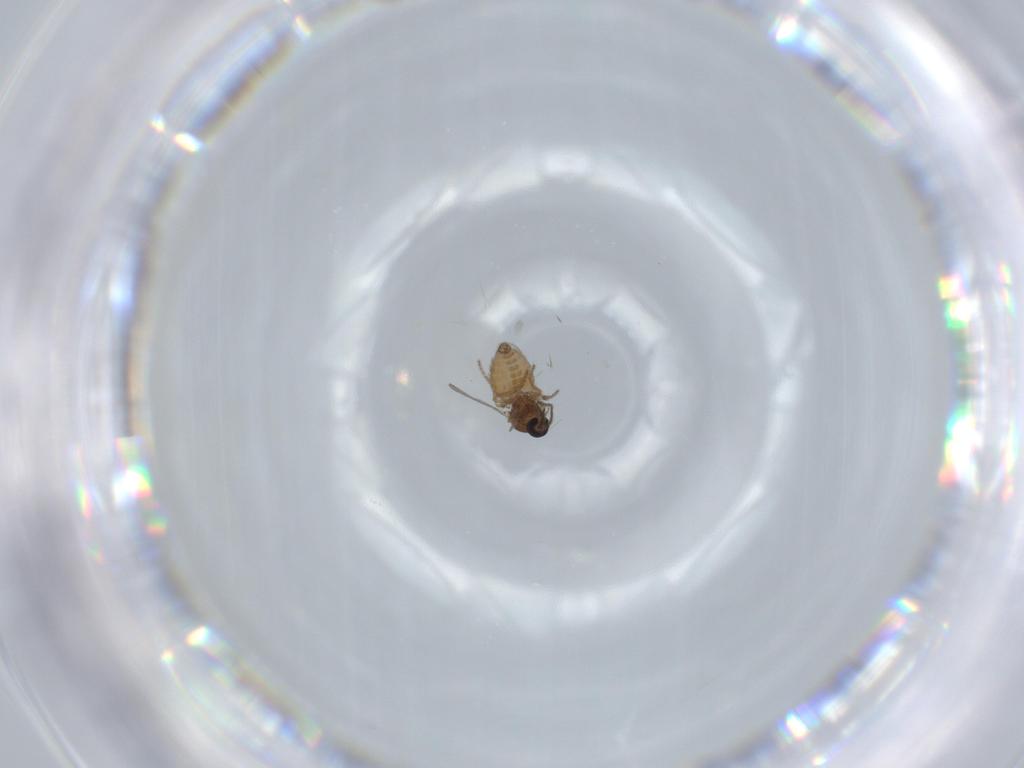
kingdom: Animalia
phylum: Arthropoda
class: Insecta
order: Diptera
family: Ceratopogonidae
